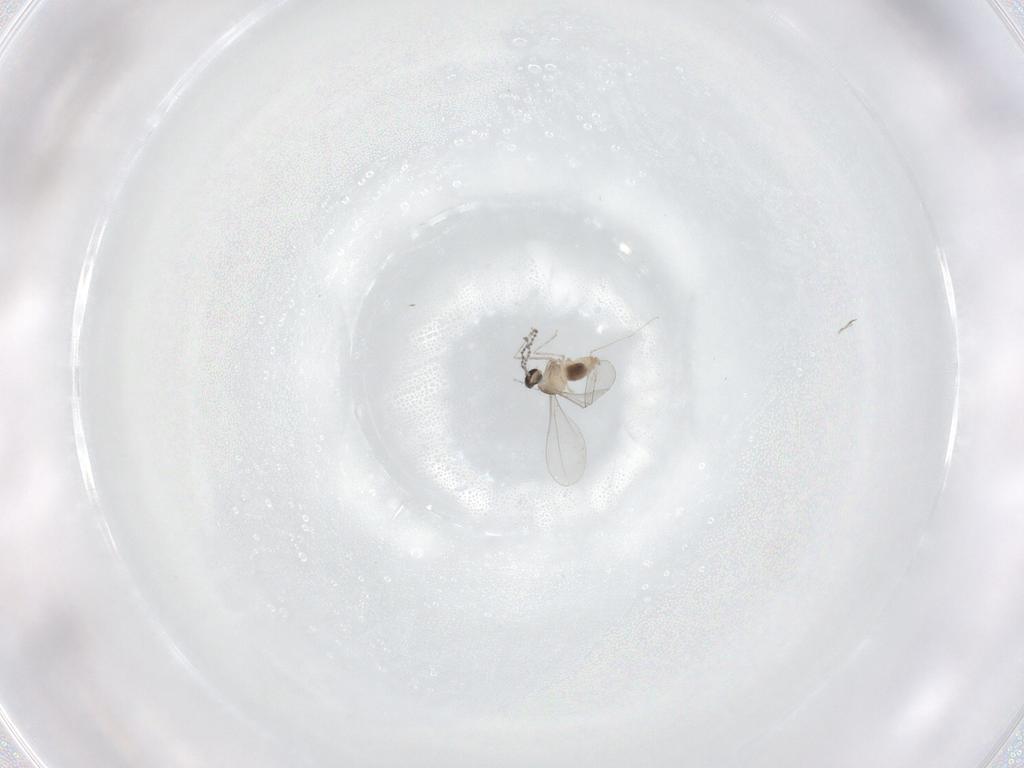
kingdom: Animalia
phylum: Arthropoda
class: Insecta
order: Diptera
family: Cecidomyiidae
